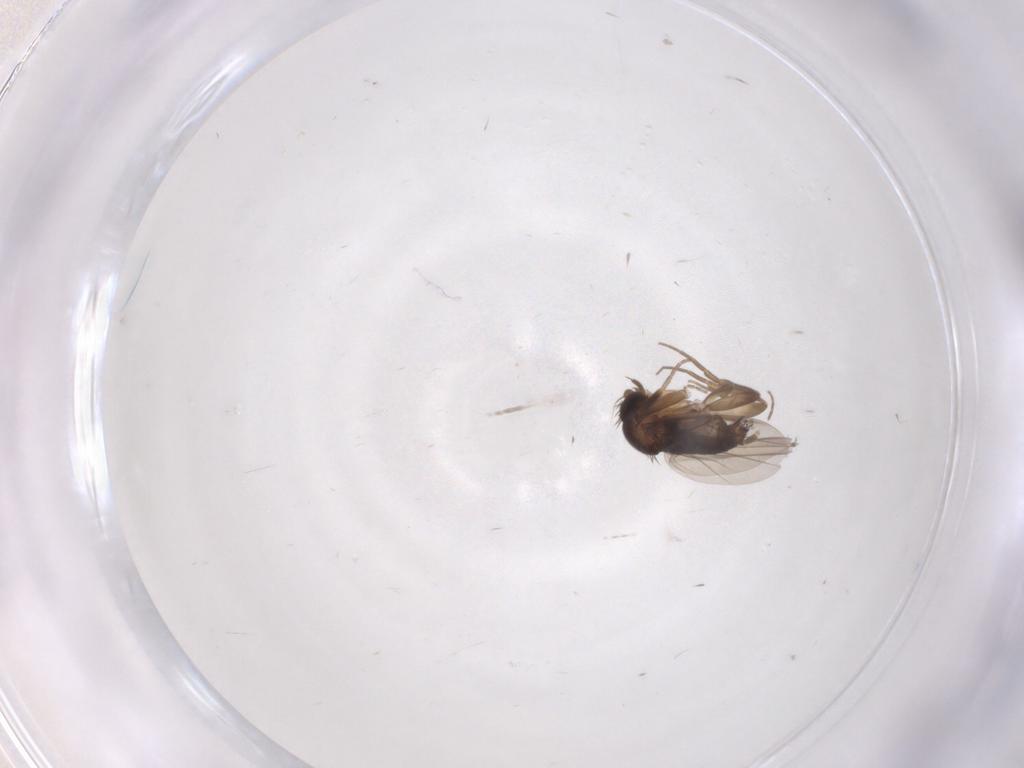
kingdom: Animalia
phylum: Arthropoda
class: Insecta
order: Diptera
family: Phoridae
